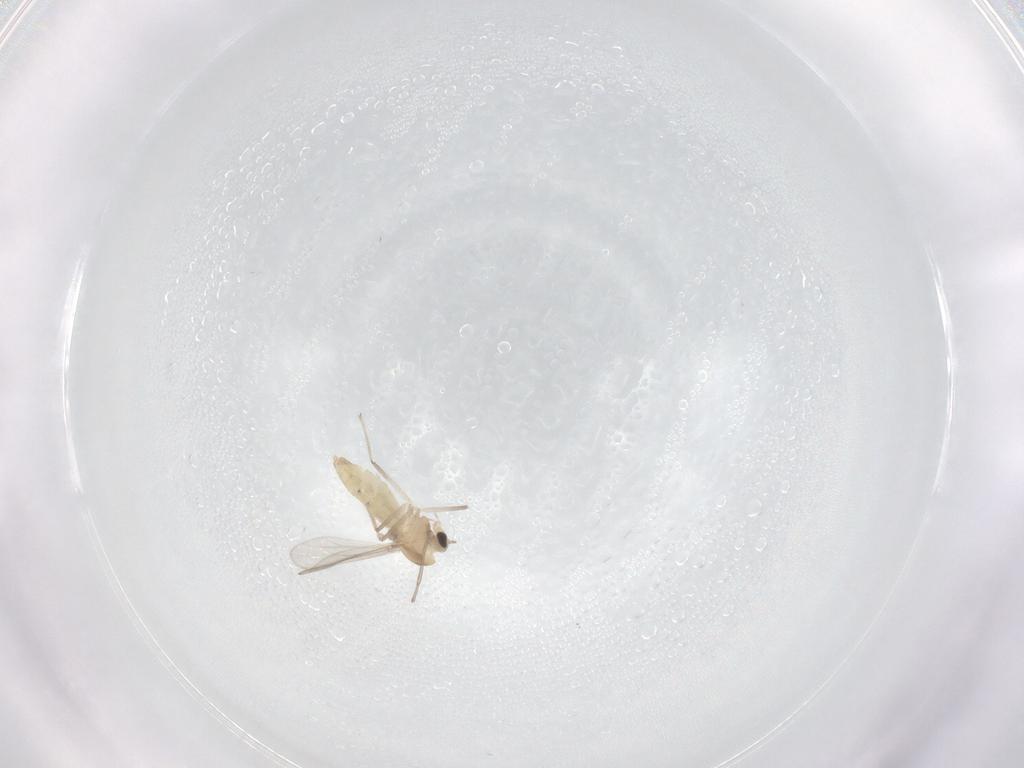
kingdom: Animalia
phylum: Arthropoda
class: Insecta
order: Diptera
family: Chironomidae
